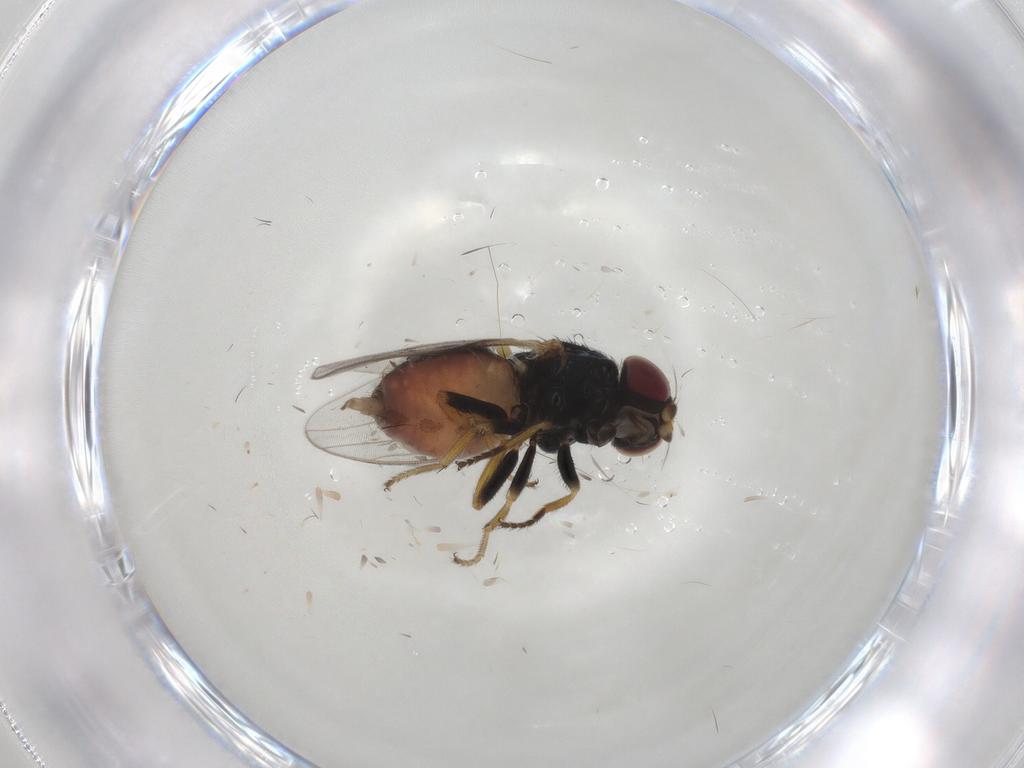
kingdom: Animalia
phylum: Arthropoda
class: Insecta
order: Diptera
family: Chloropidae
